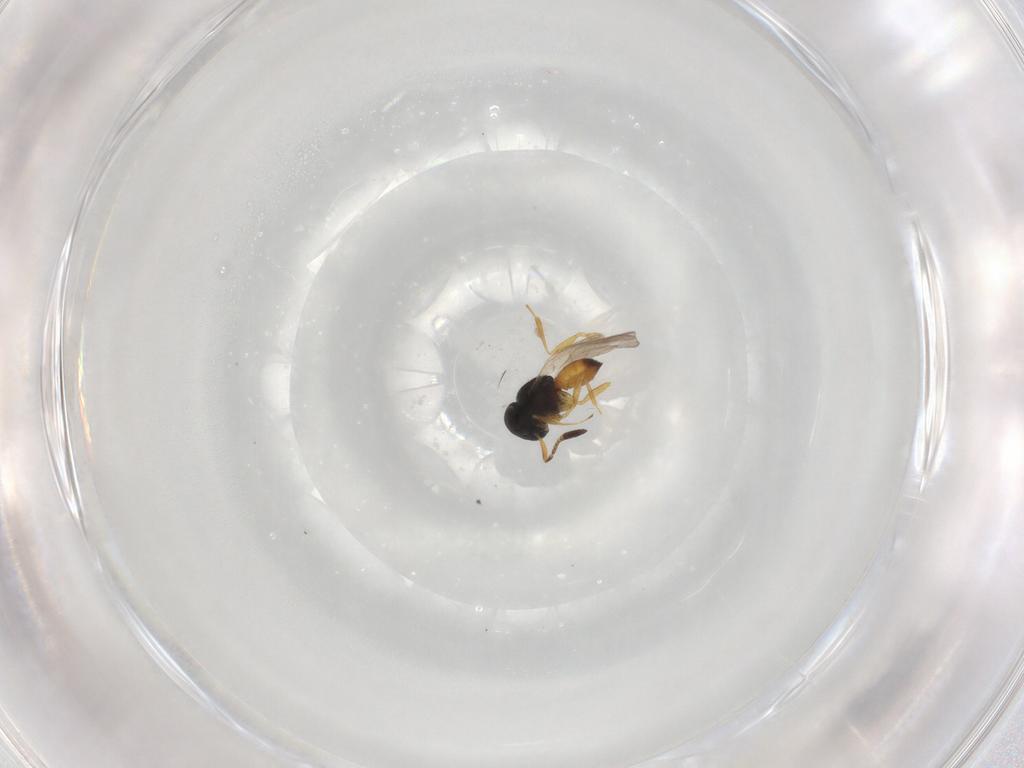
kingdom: Animalia
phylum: Arthropoda
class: Insecta
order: Hymenoptera
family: Scelionidae
